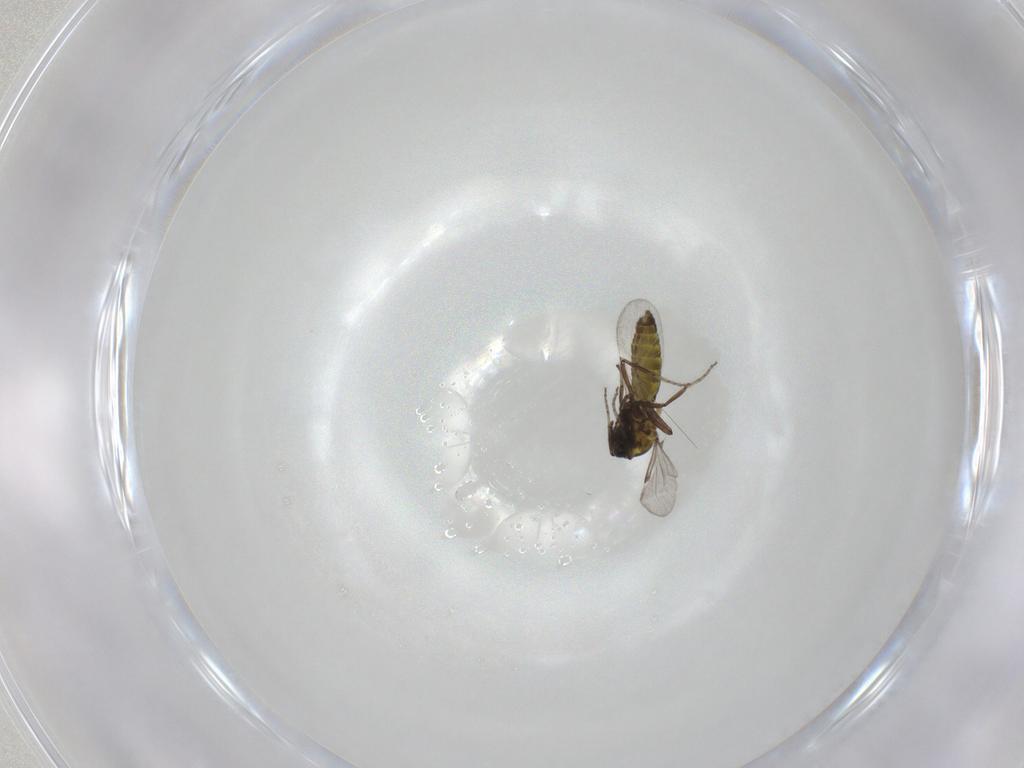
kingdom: Animalia
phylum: Arthropoda
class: Insecta
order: Diptera
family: Ceratopogonidae
